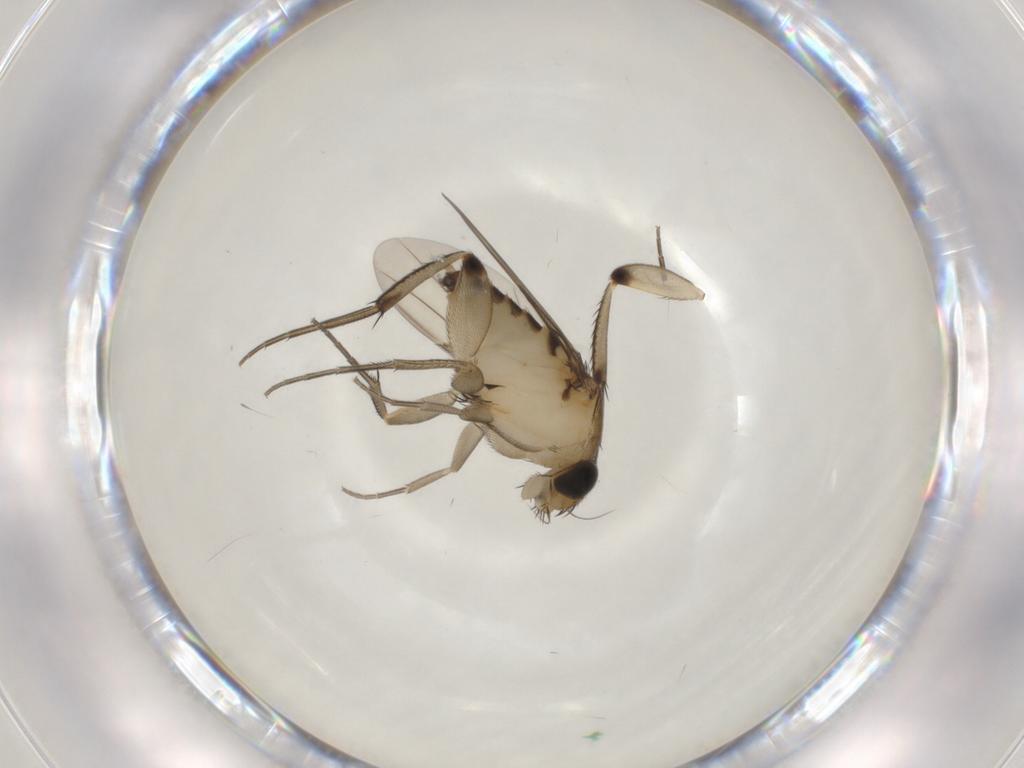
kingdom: Animalia
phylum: Arthropoda
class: Insecta
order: Diptera
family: Phoridae
